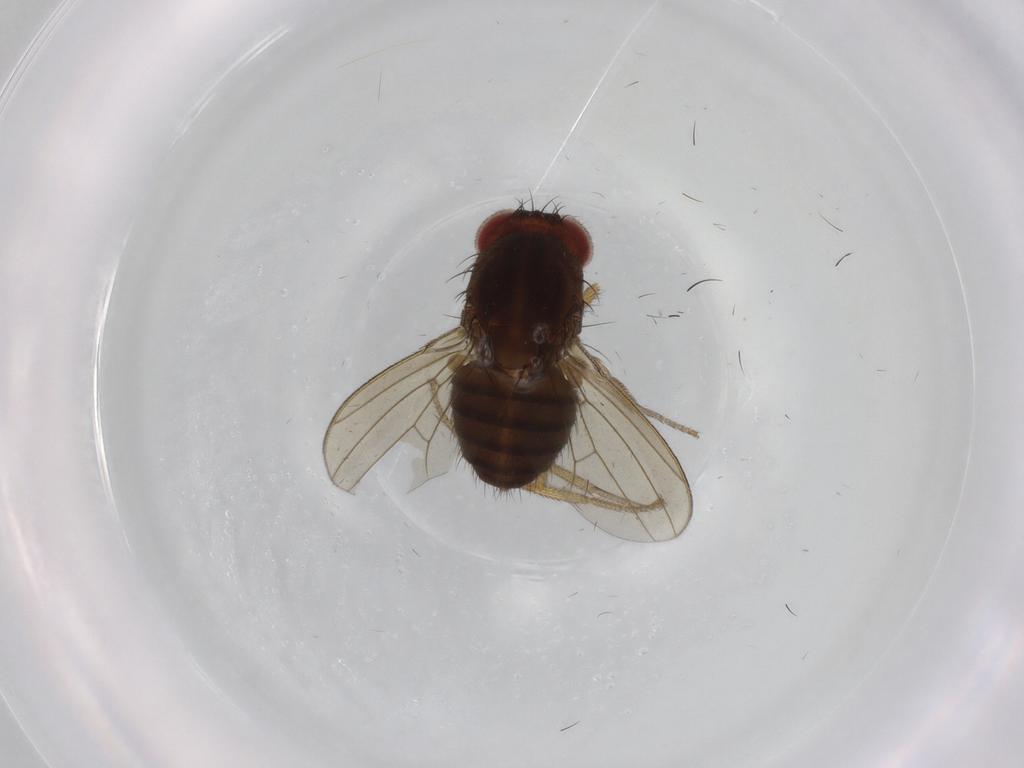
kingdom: Animalia
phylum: Arthropoda
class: Insecta
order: Diptera
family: Drosophilidae
